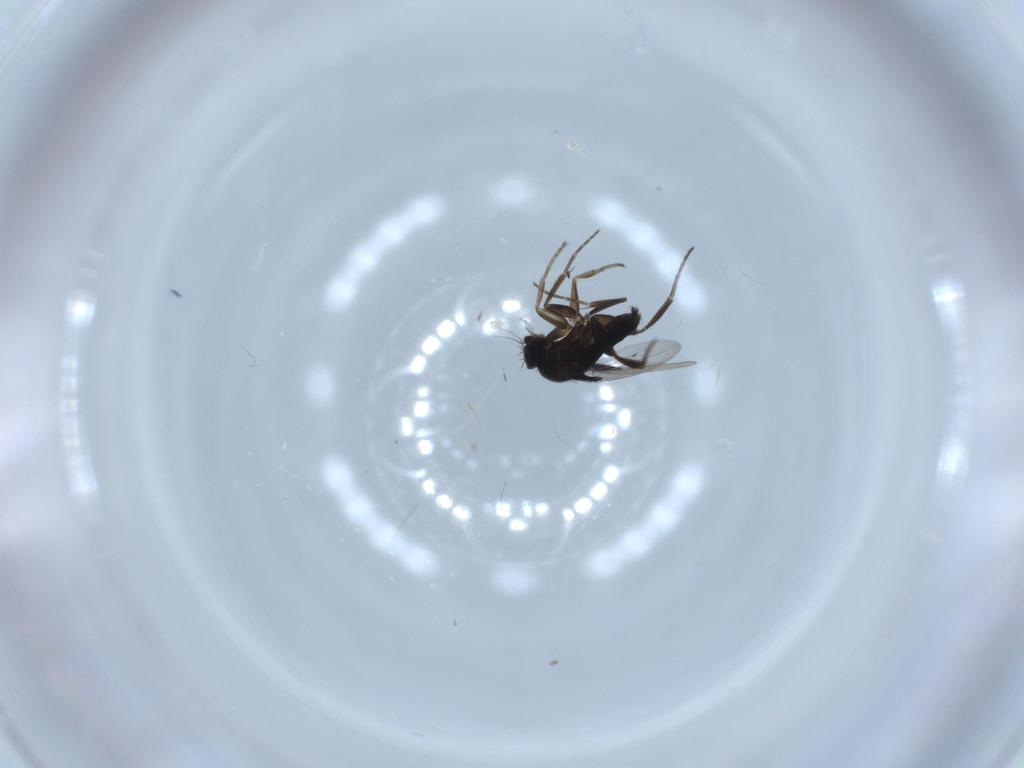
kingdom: Animalia
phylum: Arthropoda
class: Insecta
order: Diptera
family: Phoridae
